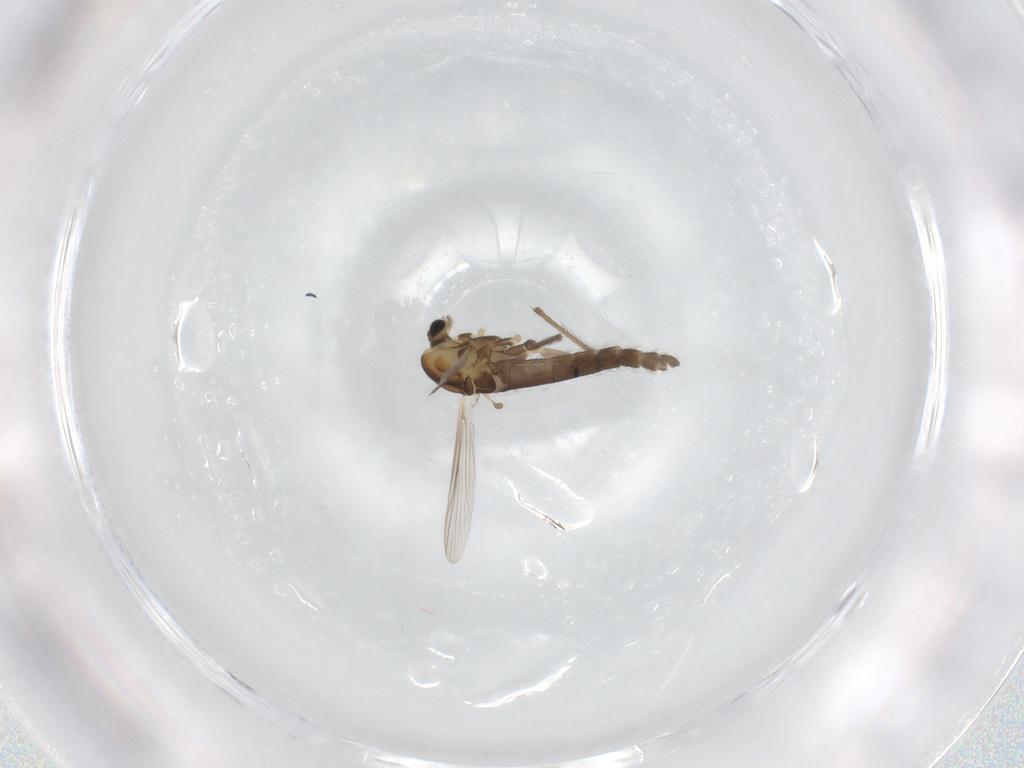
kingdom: Animalia
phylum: Arthropoda
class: Insecta
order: Diptera
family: Chironomidae
